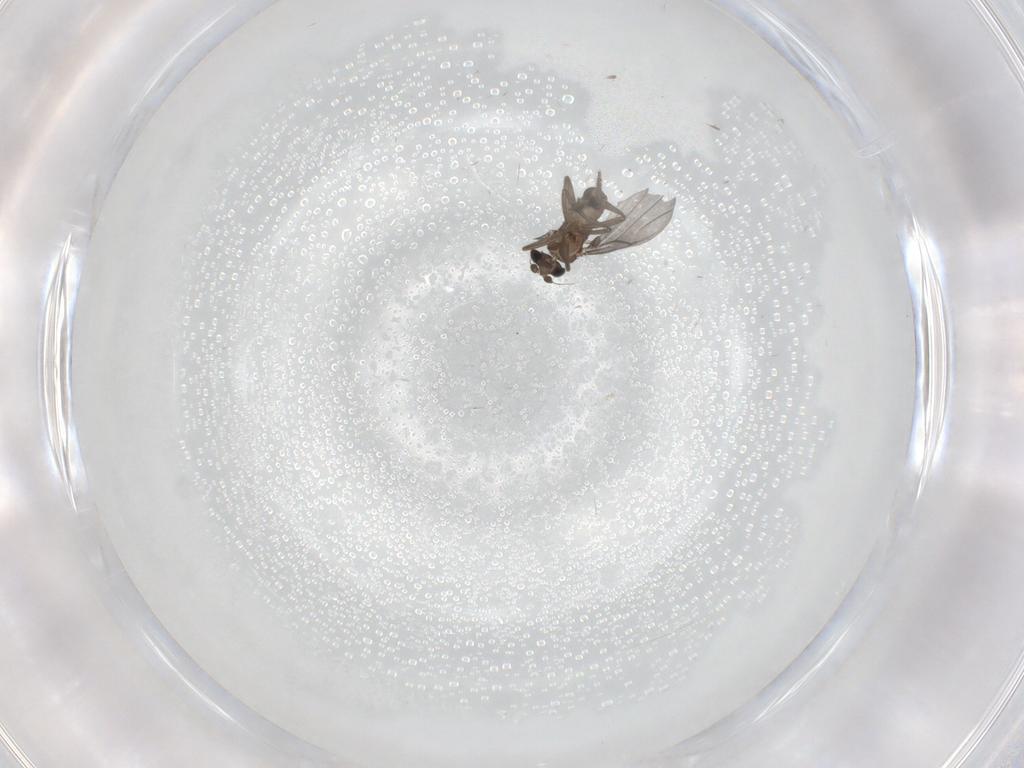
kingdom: Animalia
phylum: Arthropoda
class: Insecta
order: Diptera
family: Phoridae
